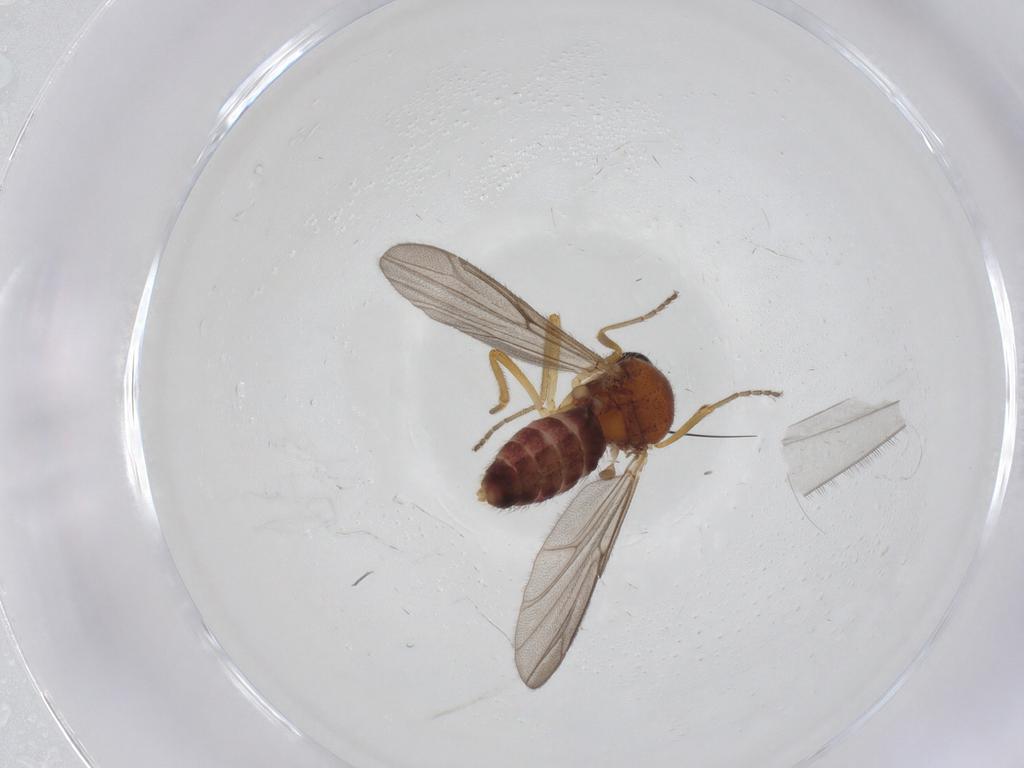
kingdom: Animalia
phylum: Arthropoda
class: Insecta
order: Diptera
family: Ceratopogonidae
